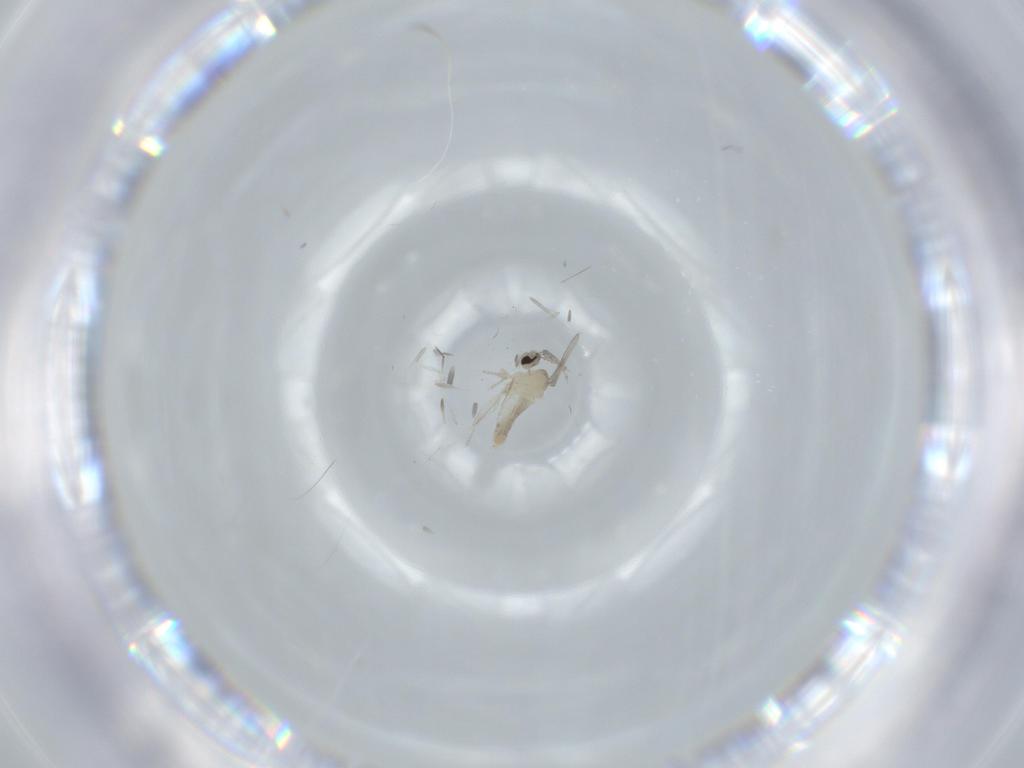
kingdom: Animalia
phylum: Arthropoda
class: Insecta
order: Diptera
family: Cecidomyiidae
